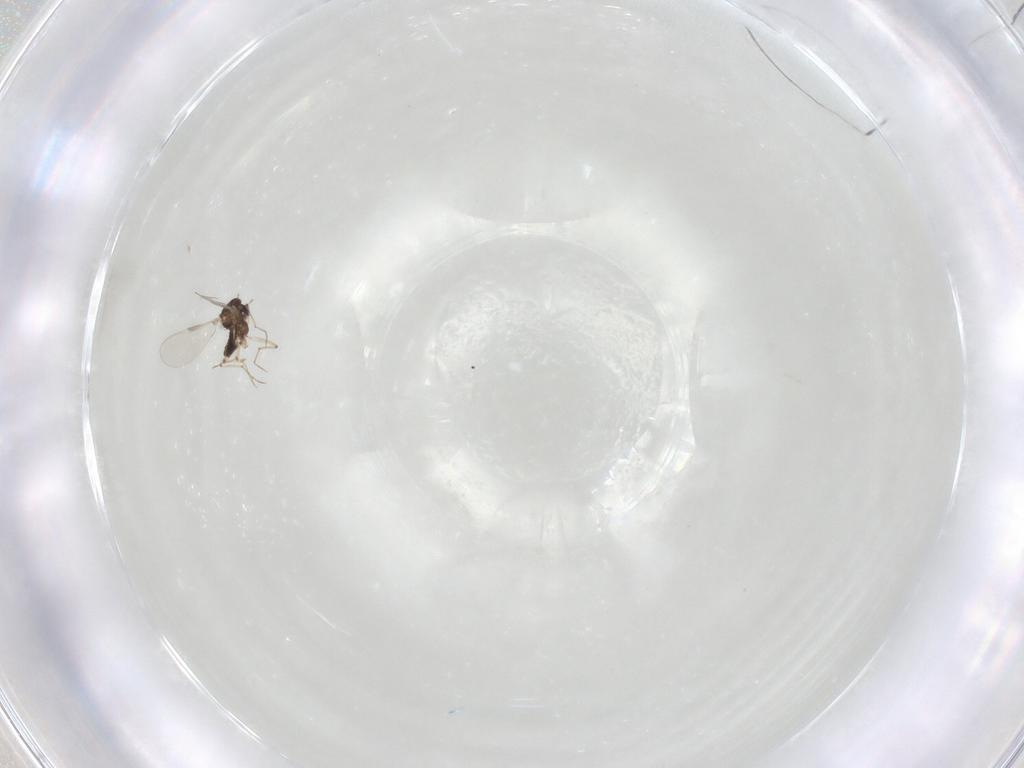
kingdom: Animalia
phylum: Arthropoda
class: Insecta
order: Diptera
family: Chironomidae
